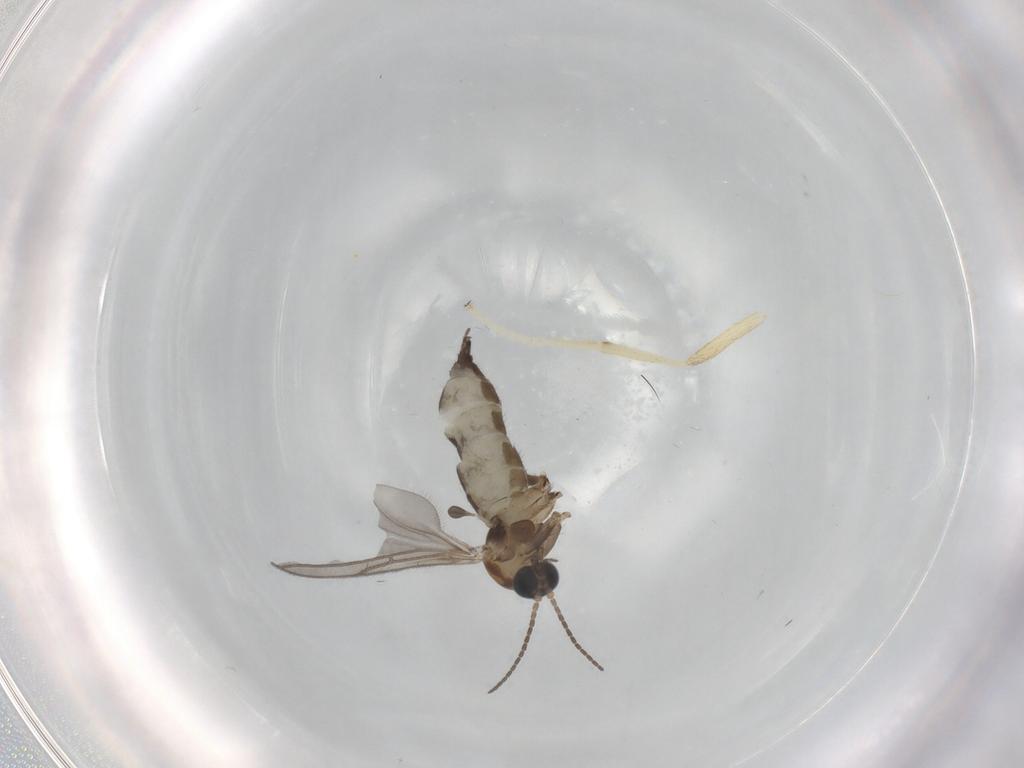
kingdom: Animalia
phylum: Arthropoda
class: Insecta
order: Diptera
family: Sciaridae
